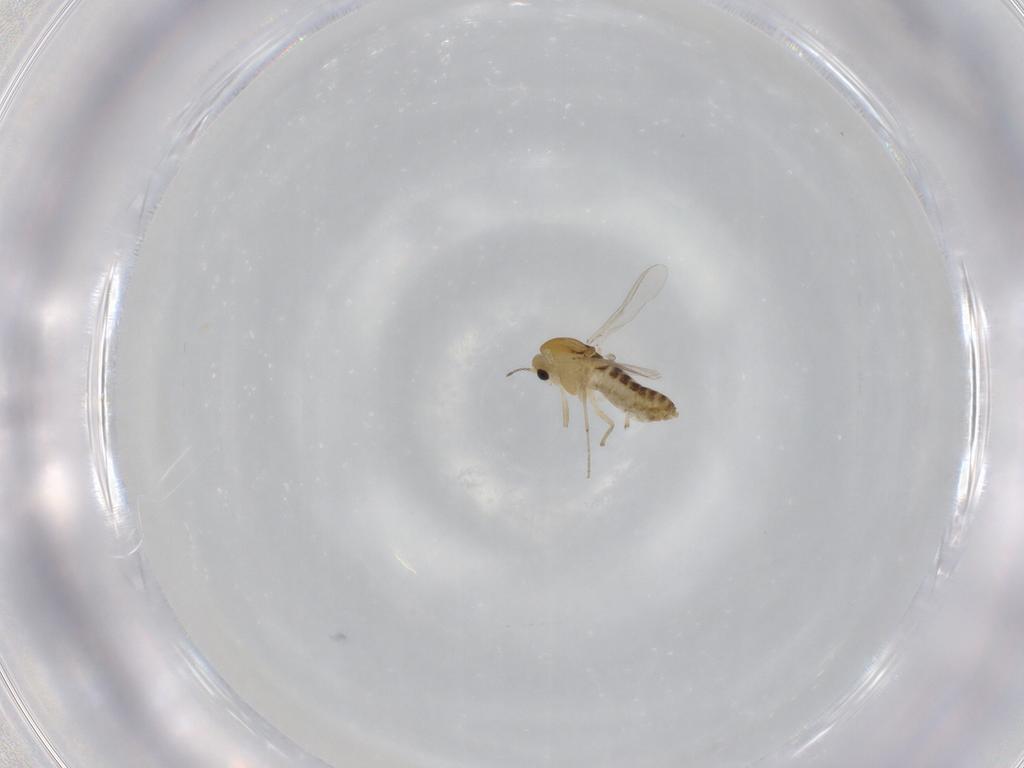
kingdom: Animalia
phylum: Arthropoda
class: Insecta
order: Diptera
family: Chironomidae
